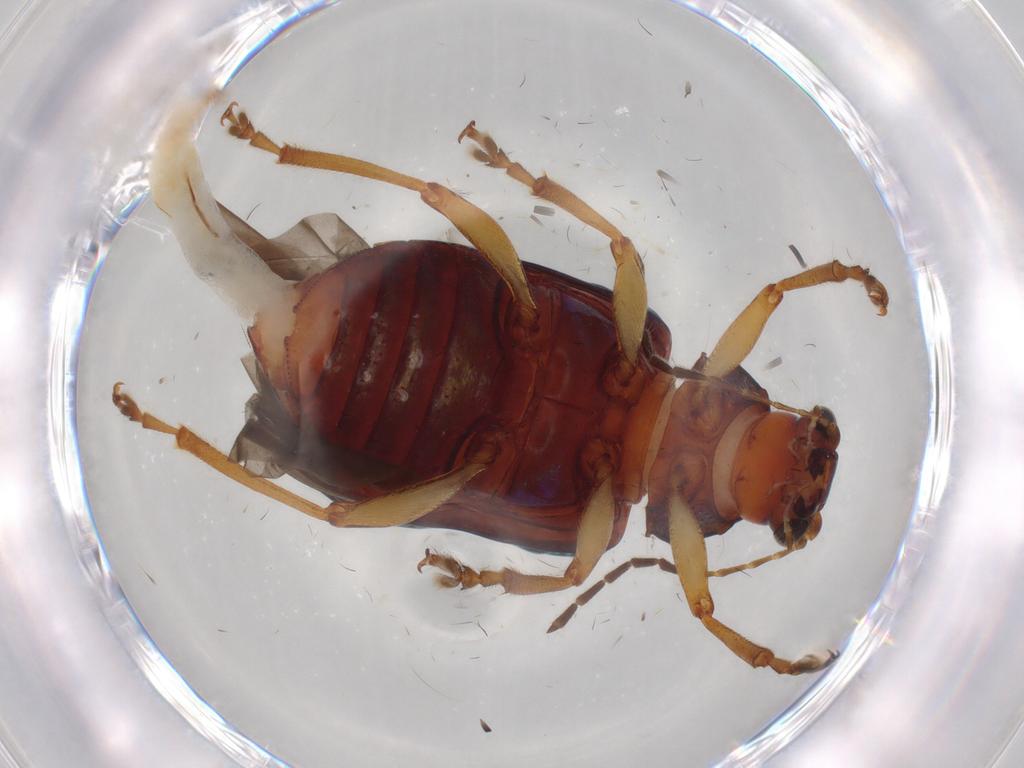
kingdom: Animalia
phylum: Arthropoda
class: Insecta
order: Coleoptera
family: Chrysomelidae
